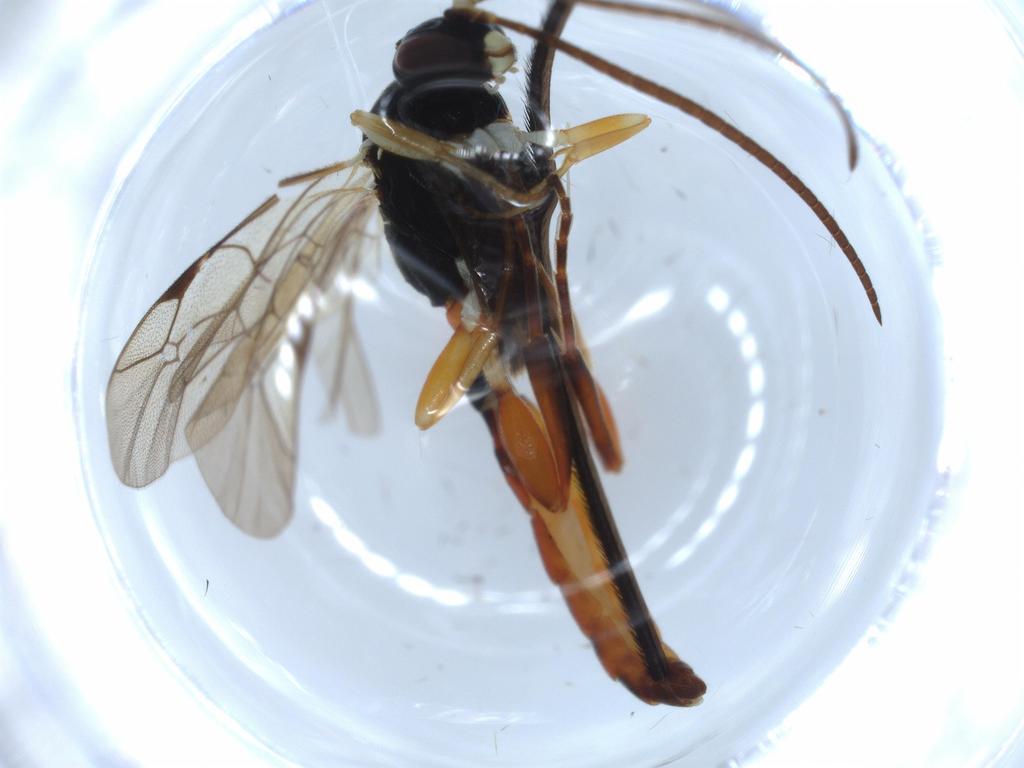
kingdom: Animalia
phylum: Arthropoda
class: Insecta
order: Hymenoptera
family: Ichneumonidae
